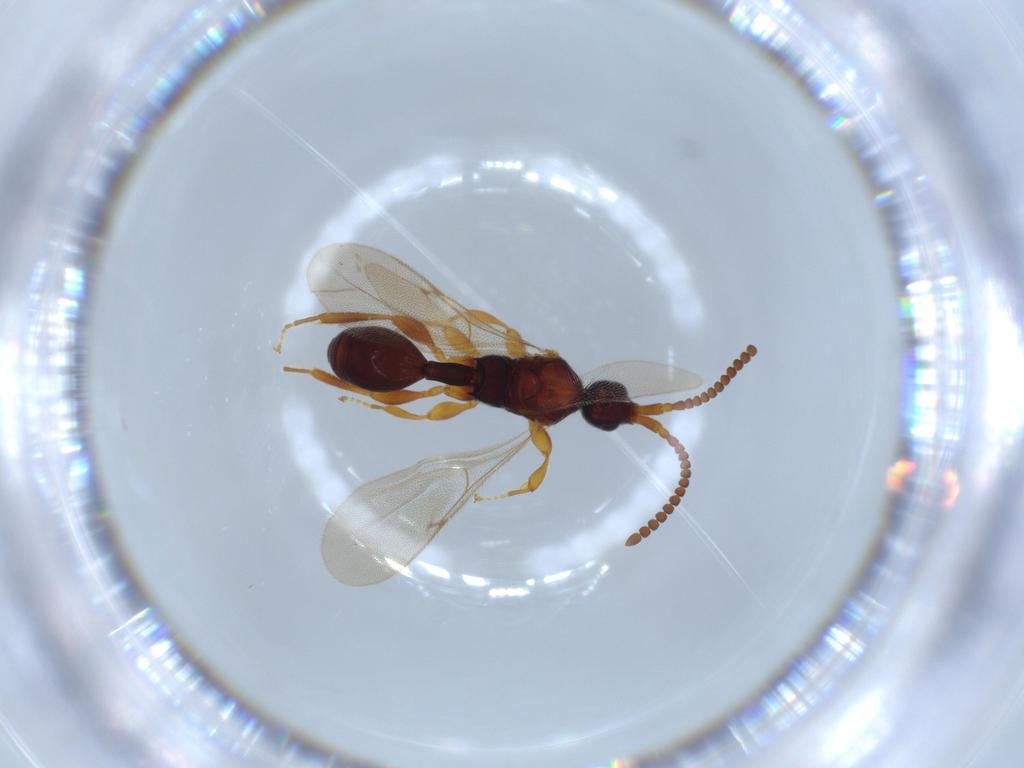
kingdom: Animalia
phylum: Arthropoda
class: Insecta
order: Hymenoptera
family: Diapriidae
